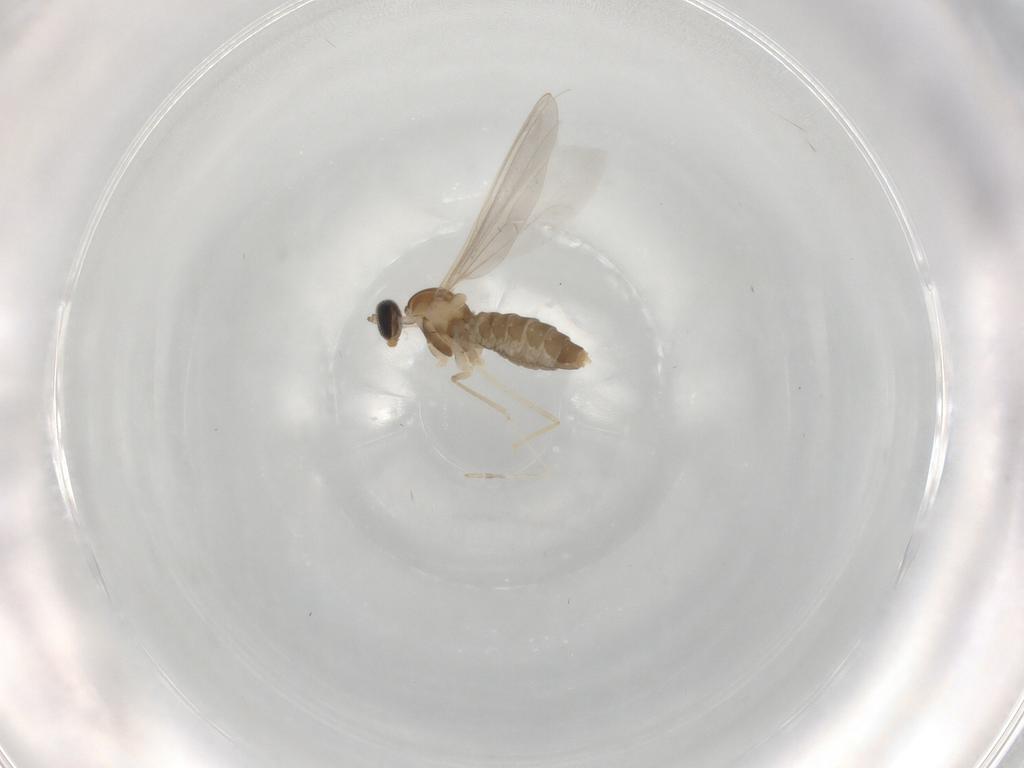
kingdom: Animalia
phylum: Arthropoda
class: Insecta
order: Diptera
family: Cecidomyiidae
